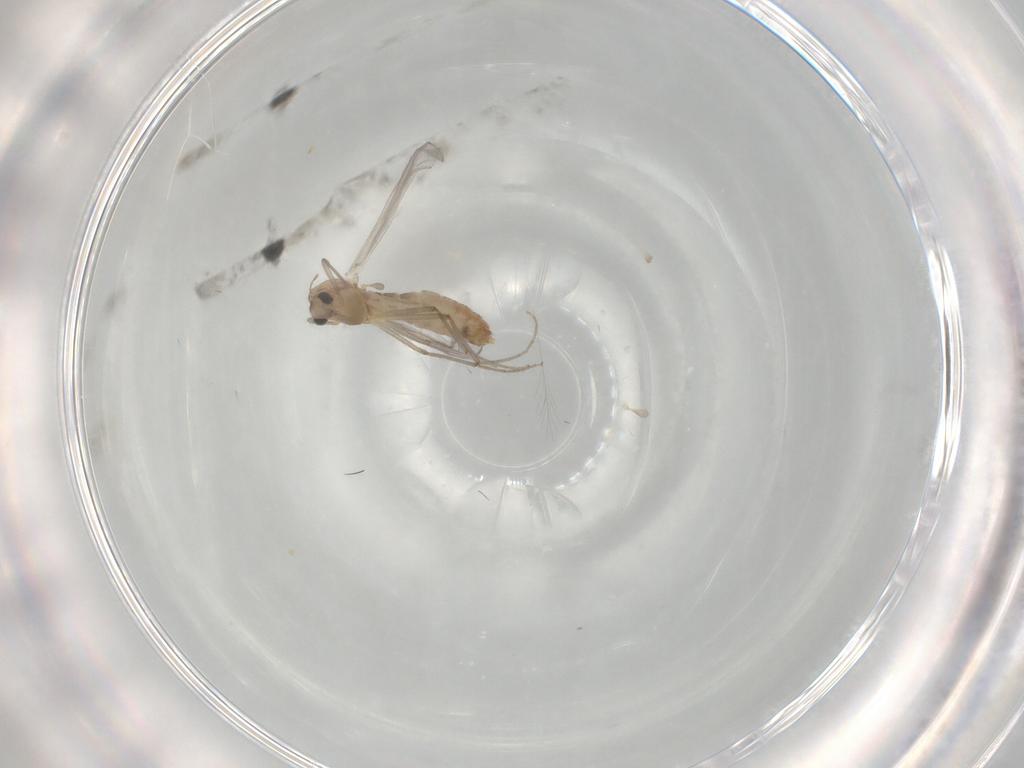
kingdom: Animalia
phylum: Arthropoda
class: Insecta
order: Diptera
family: Chironomidae
